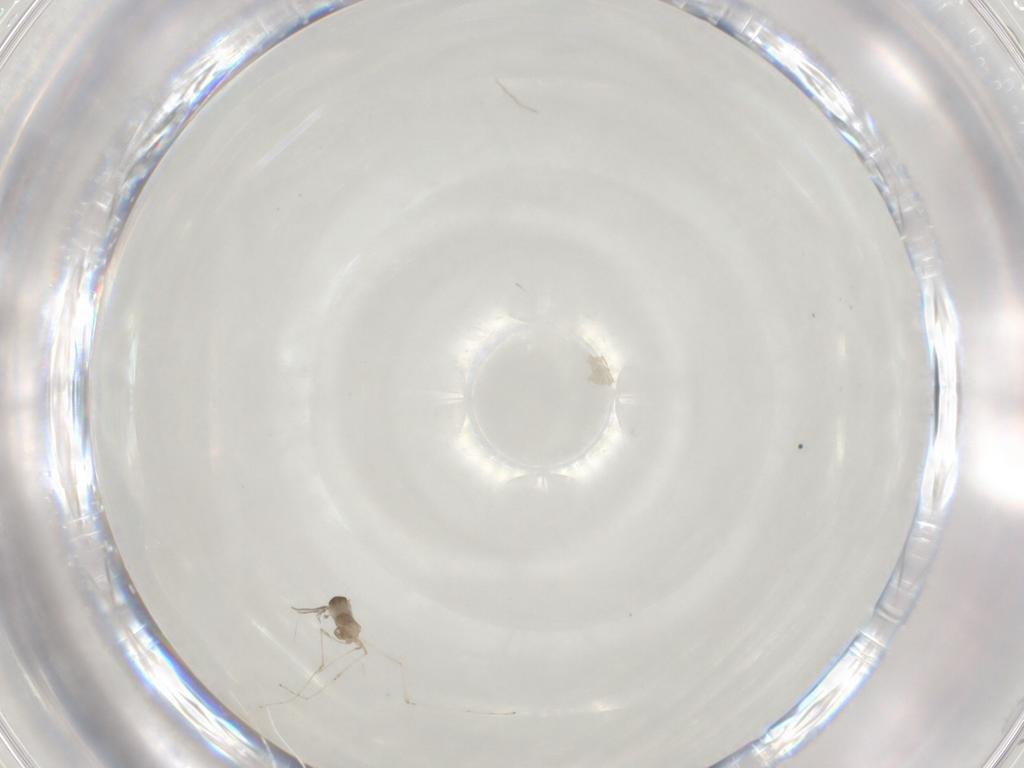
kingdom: Animalia
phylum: Arthropoda
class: Insecta
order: Diptera
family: Cecidomyiidae
